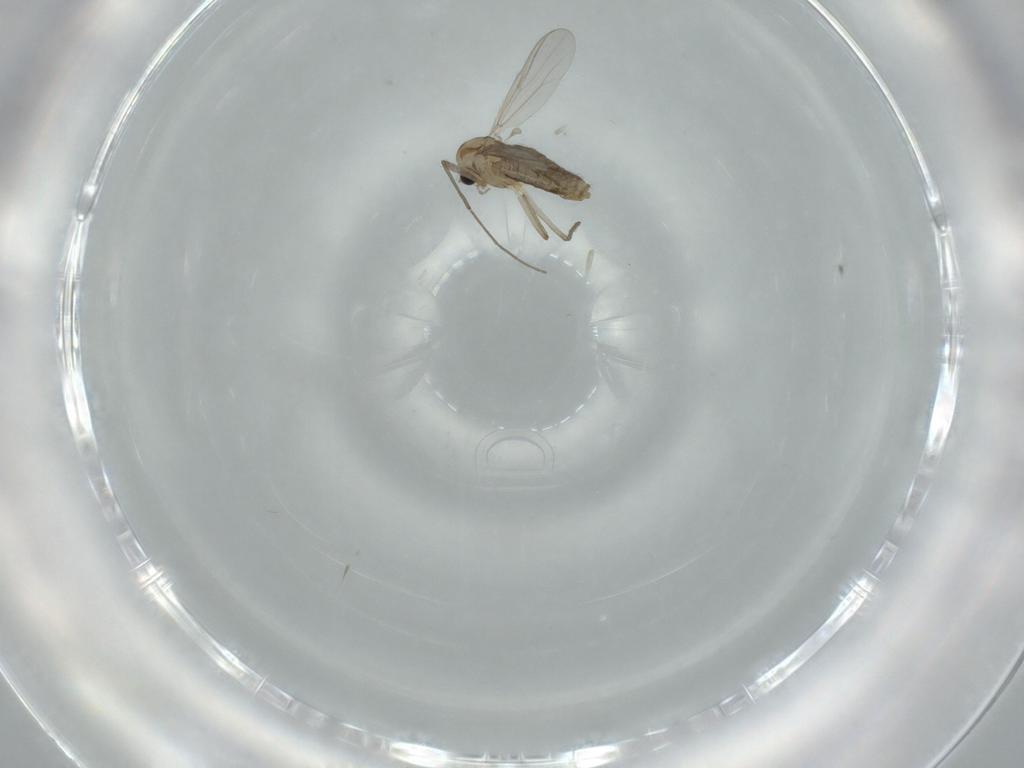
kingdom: Animalia
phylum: Arthropoda
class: Insecta
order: Diptera
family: Chironomidae
